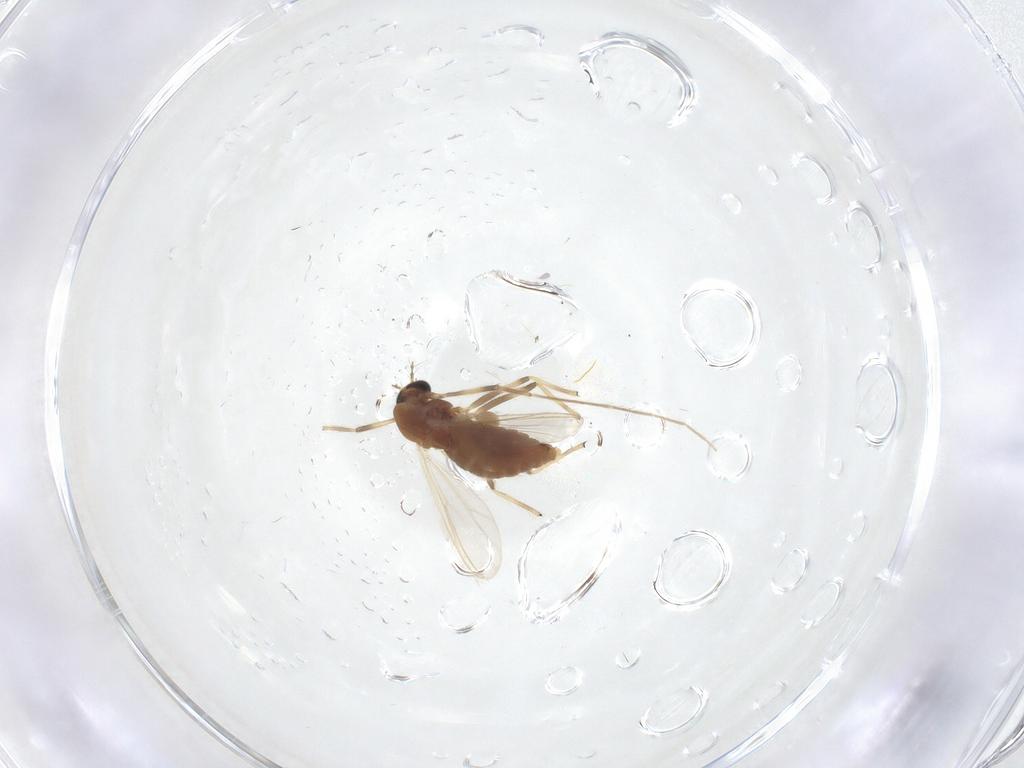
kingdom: Animalia
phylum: Arthropoda
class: Insecta
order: Diptera
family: Chironomidae
